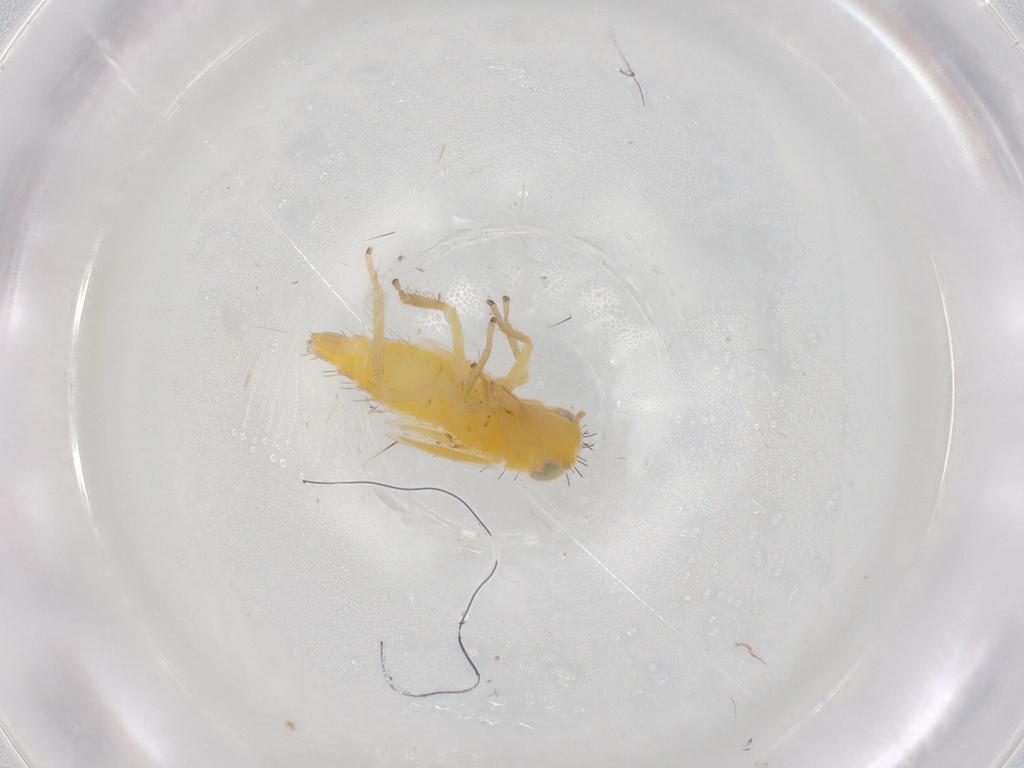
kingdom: Animalia
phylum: Arthropoda
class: Insecta
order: Hemiptera
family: Cicadellidae
